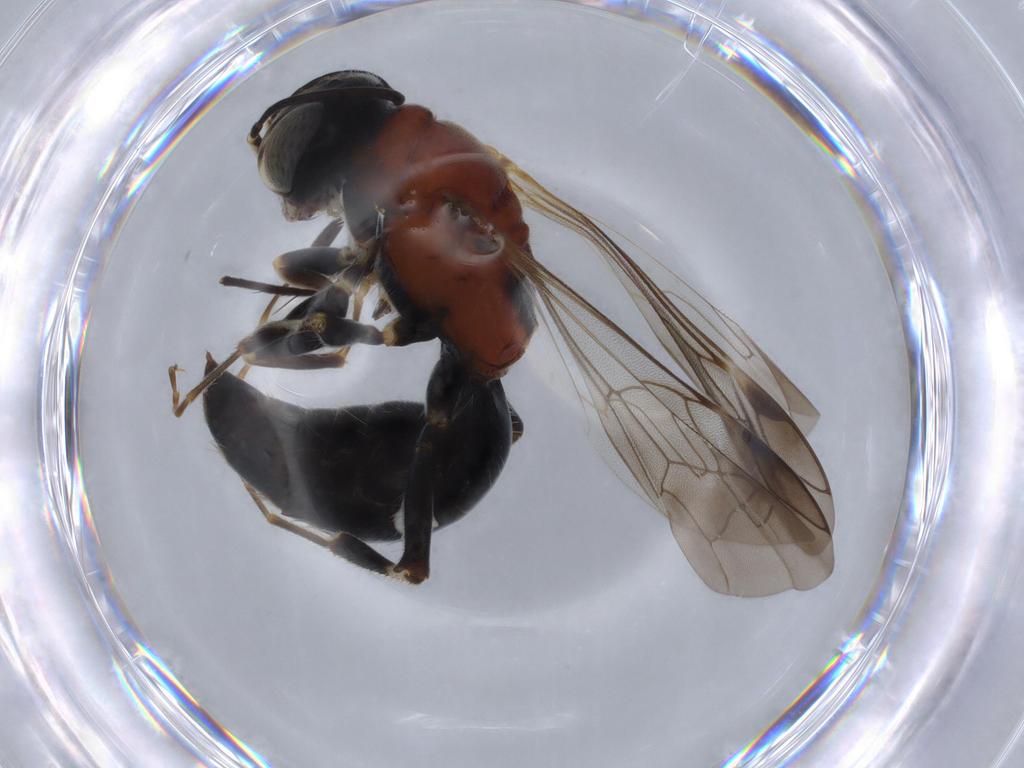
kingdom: Animalia
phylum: Arthropoda
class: Insecta
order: Hymenoptera
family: Bembicidae
